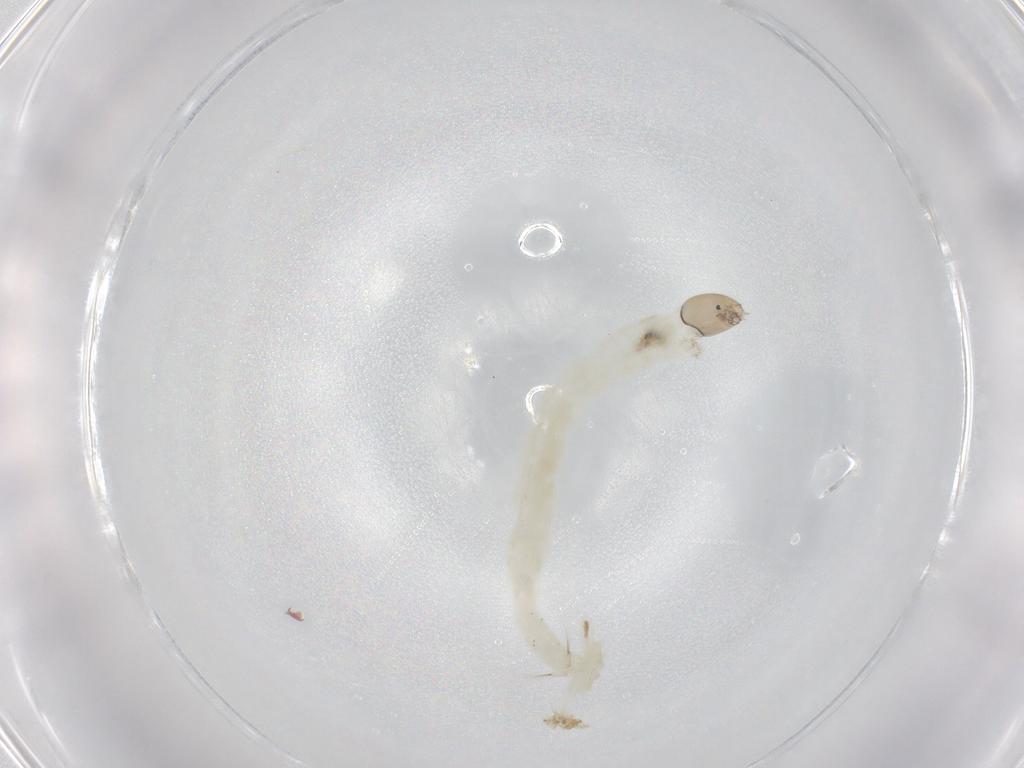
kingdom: Animalia
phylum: Arthropoda
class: Insecta
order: Diptera
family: Chironomidae
